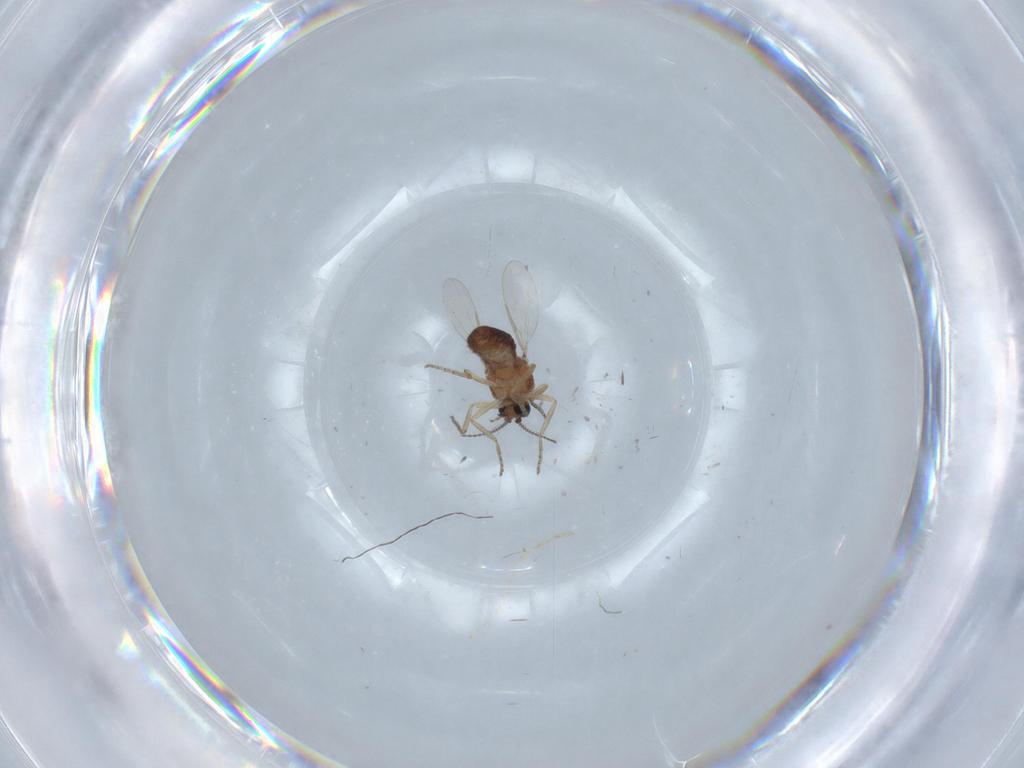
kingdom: Animalia
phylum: Arthropoda
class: Insecta
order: Diptera
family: Ceratopogonidae
